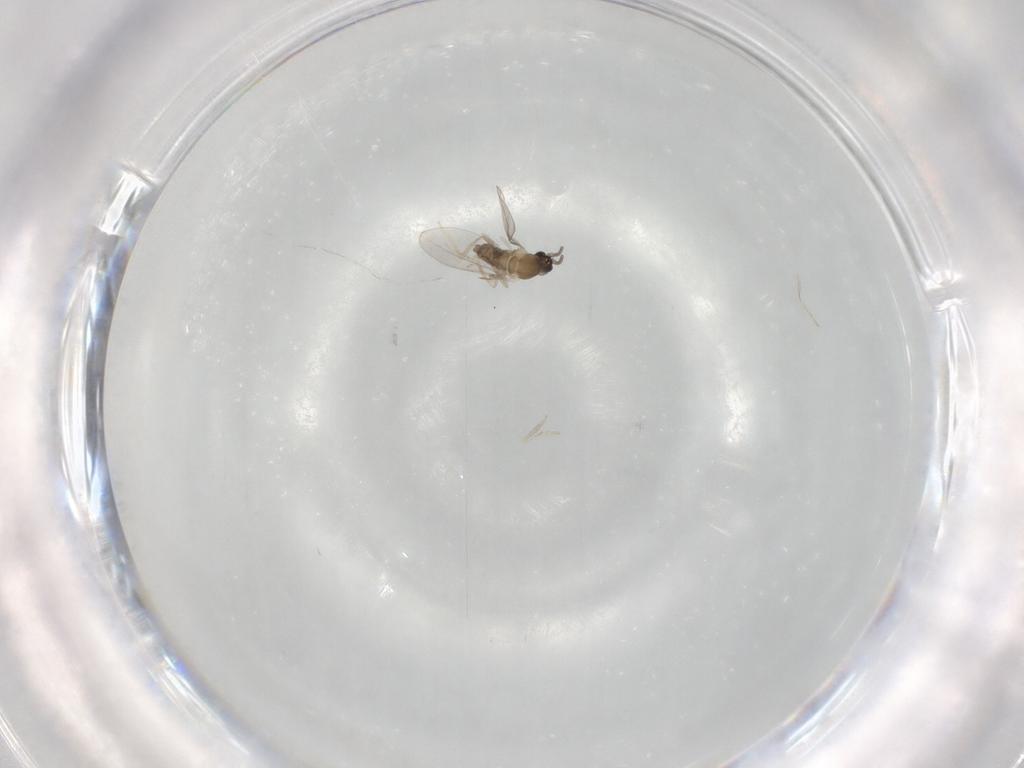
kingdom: Animalia
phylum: Arthropoda
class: Insecta
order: Diptera
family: Cecidomyiidae
